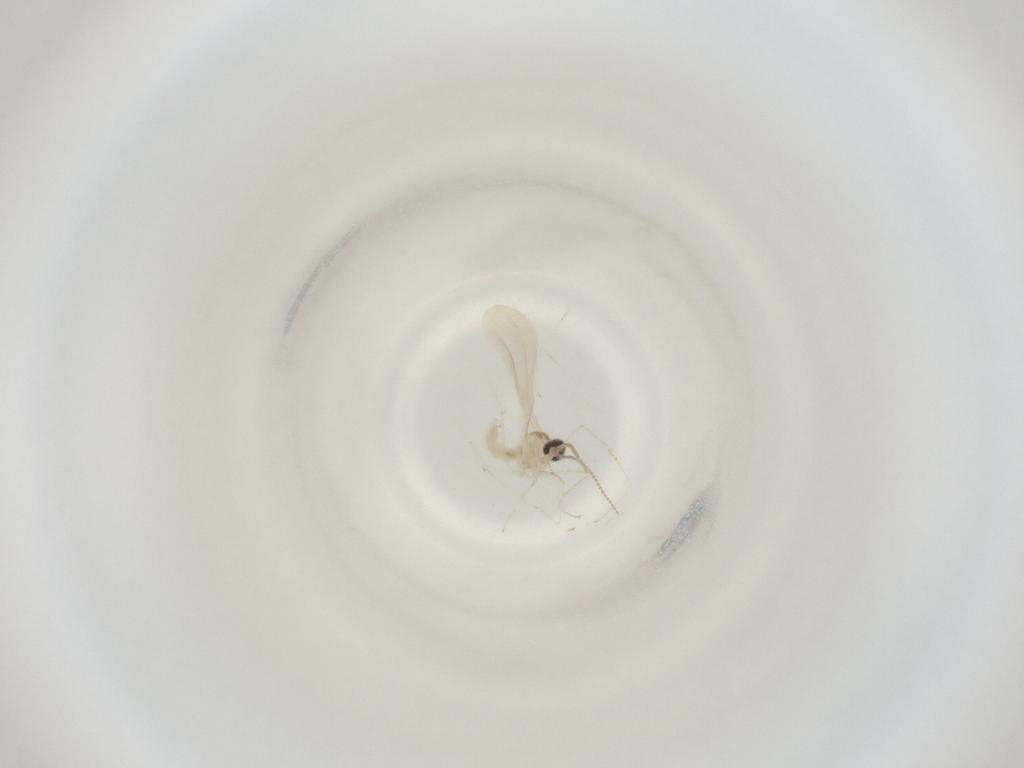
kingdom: Animalia
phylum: Arthropoda
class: Insecta
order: Diptera
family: Cecidomyiidae
